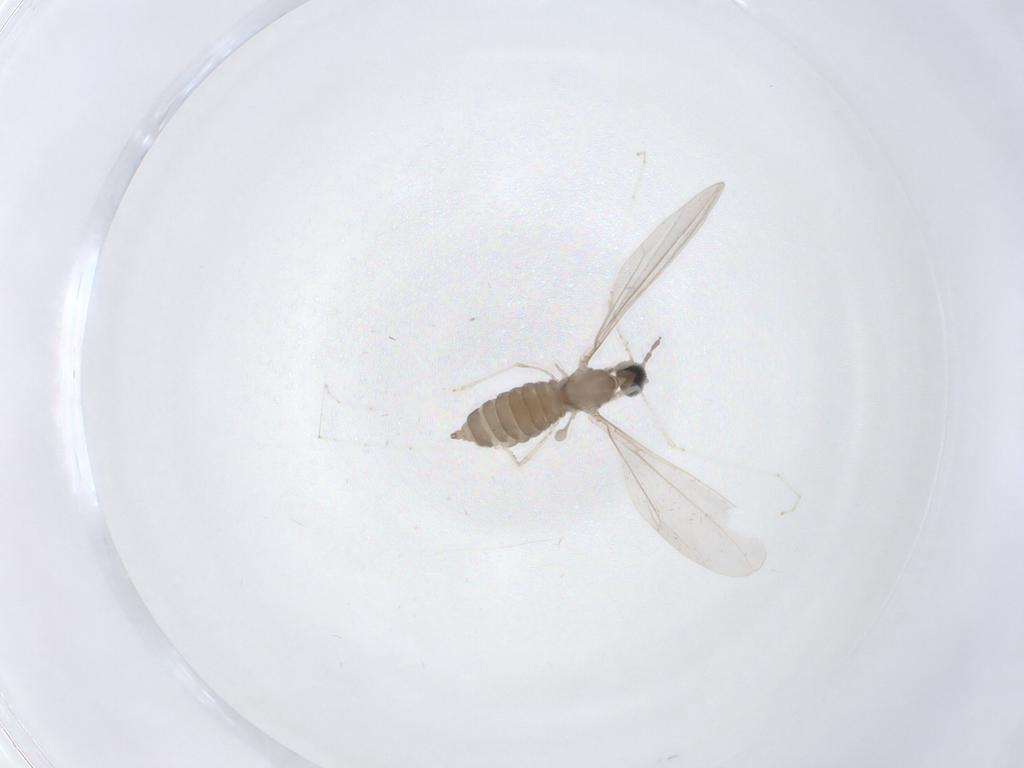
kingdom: Animalia
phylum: Arthropoda
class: Insecta
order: Diptera
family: Cecidomyiidae
